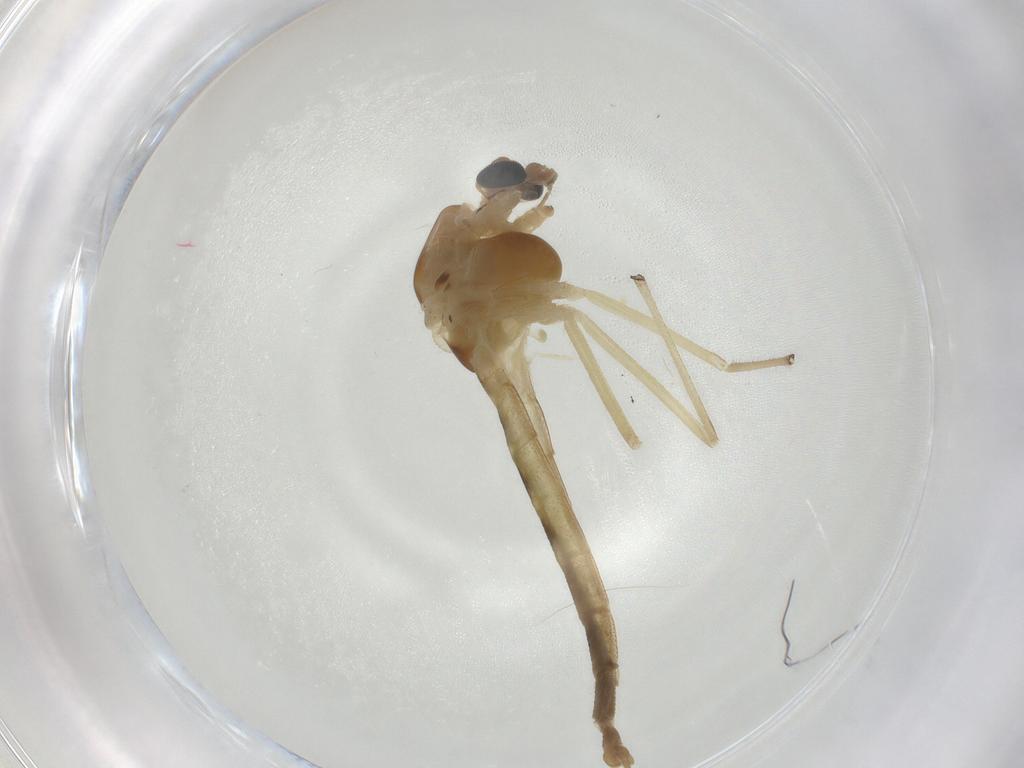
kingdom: Animalia
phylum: Arthropoda
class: Insecta
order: Diptera
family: Chironomidae
